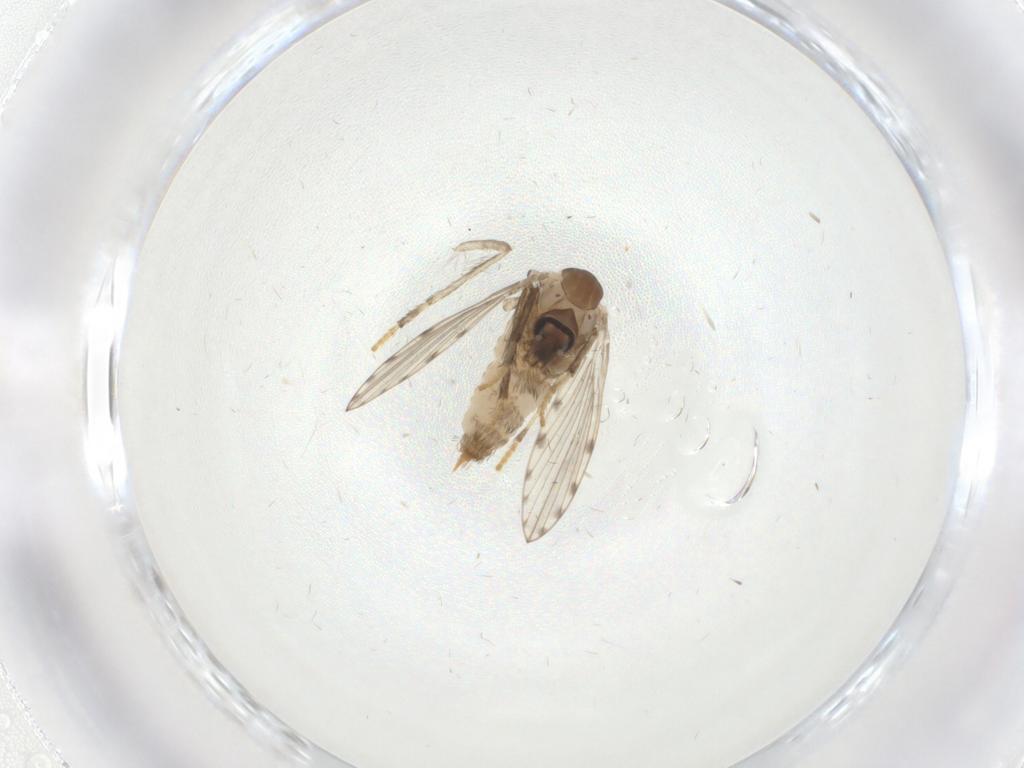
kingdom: Animalia
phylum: Arthropoda
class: Insecta
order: Diptera
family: Psychodidae
